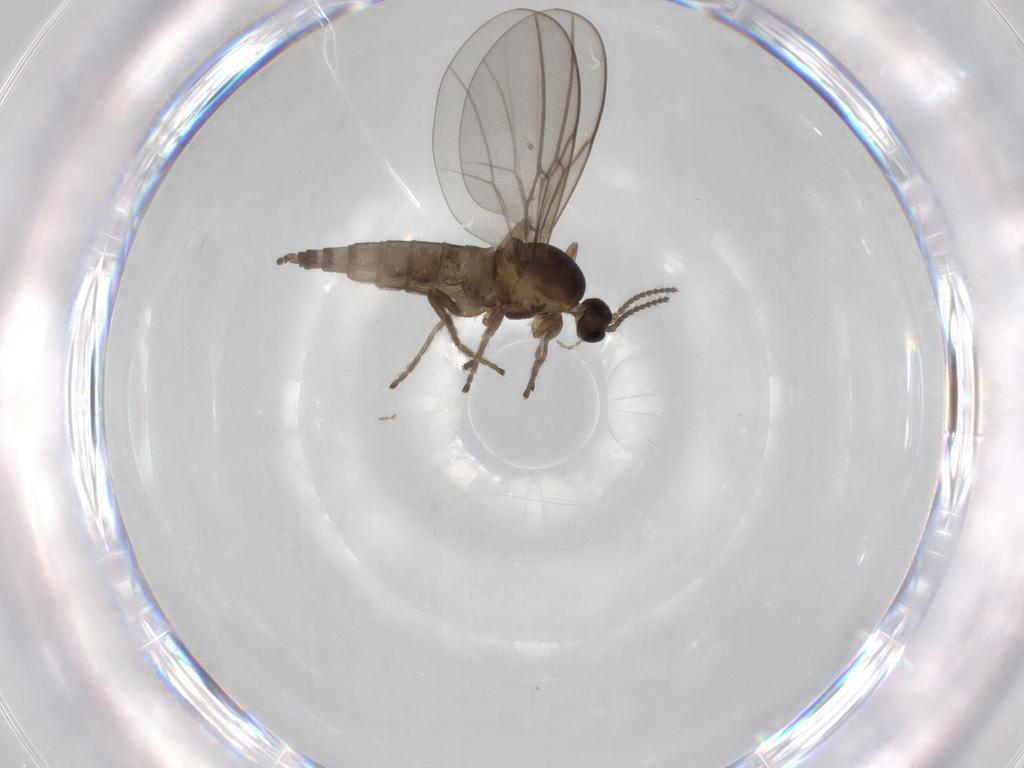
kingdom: Animalia
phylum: Arthropoda
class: Insecta
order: Diptera
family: Cecidomyiidae
